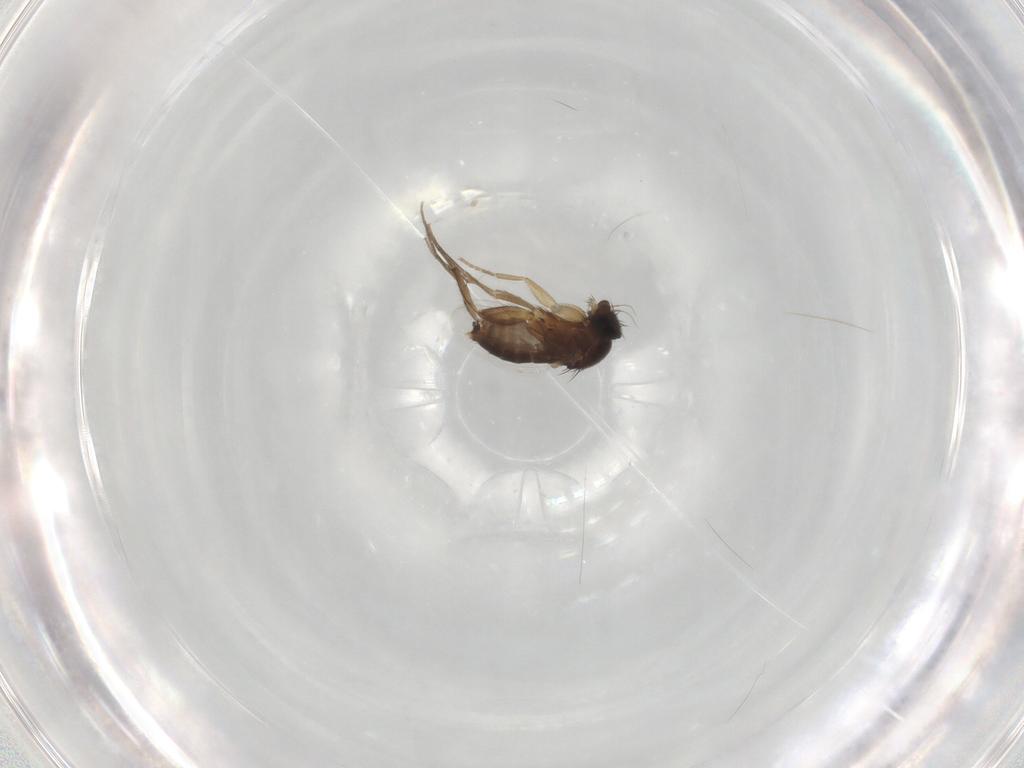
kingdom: Animalia
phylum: Arthropoda
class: Insecta
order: Diptera
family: Phoridae
